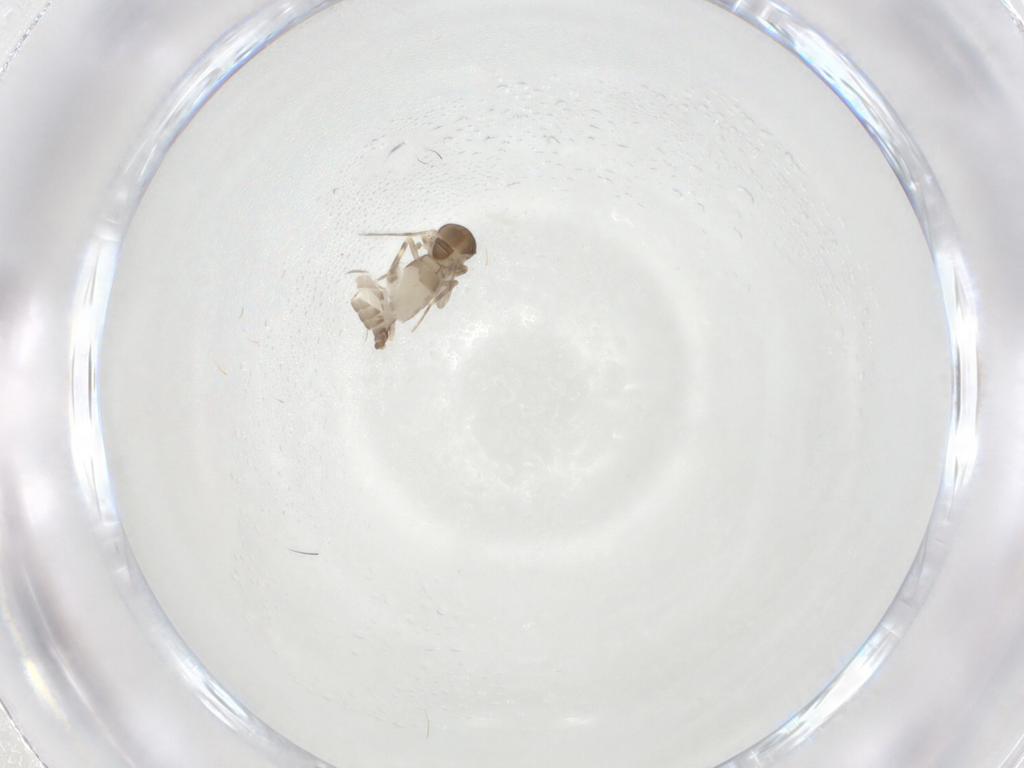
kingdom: Animalia
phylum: Arthropoda
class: Insecta
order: Diptera
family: Ceratopogonidae
